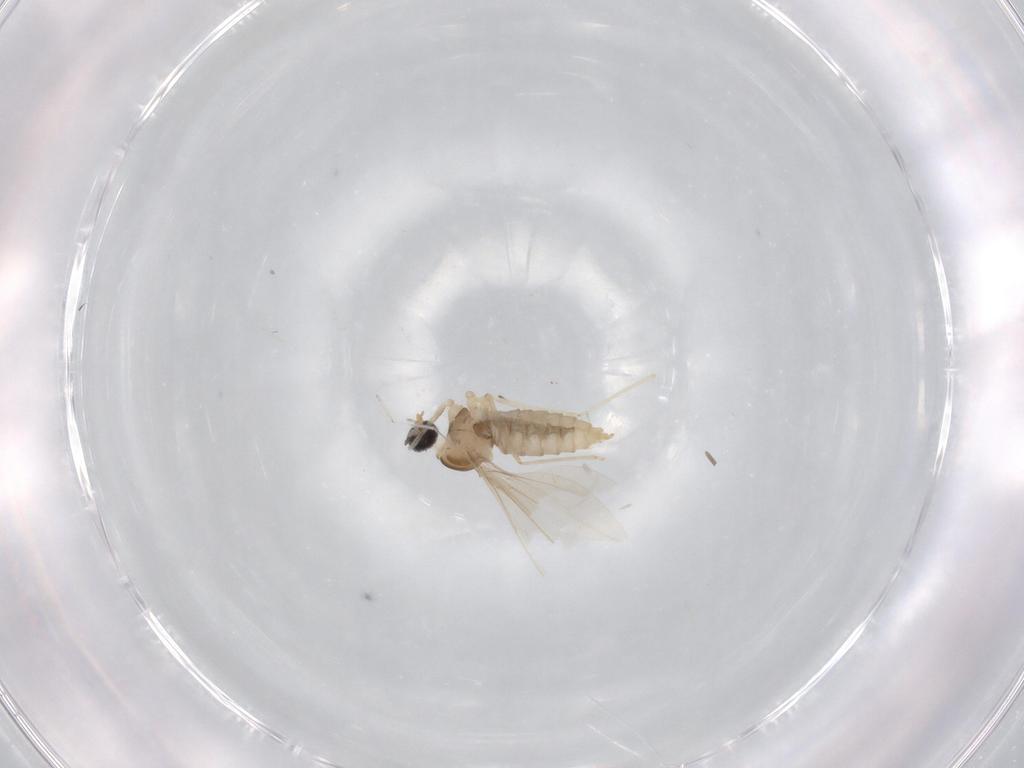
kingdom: Animalia
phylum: Arthropoda
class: Insecta
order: Diptera
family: Cecidomyiidae
